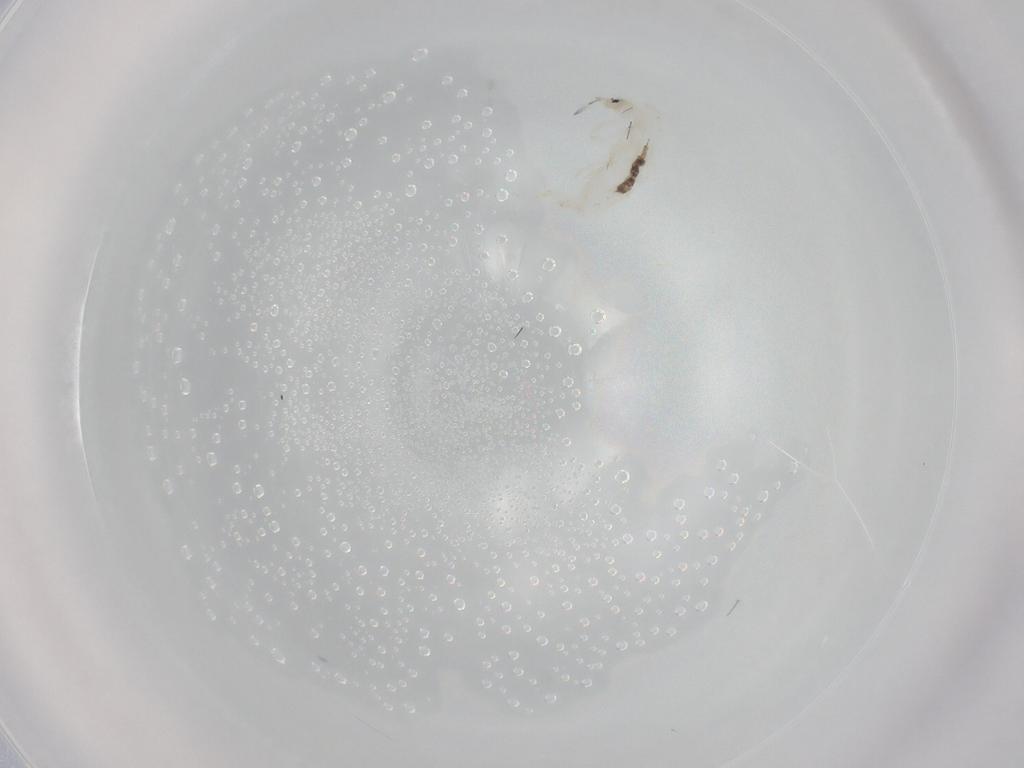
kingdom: Animalia
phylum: Arthropoda
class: Collembola
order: Entomobryomorpha
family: Entomobryidae
